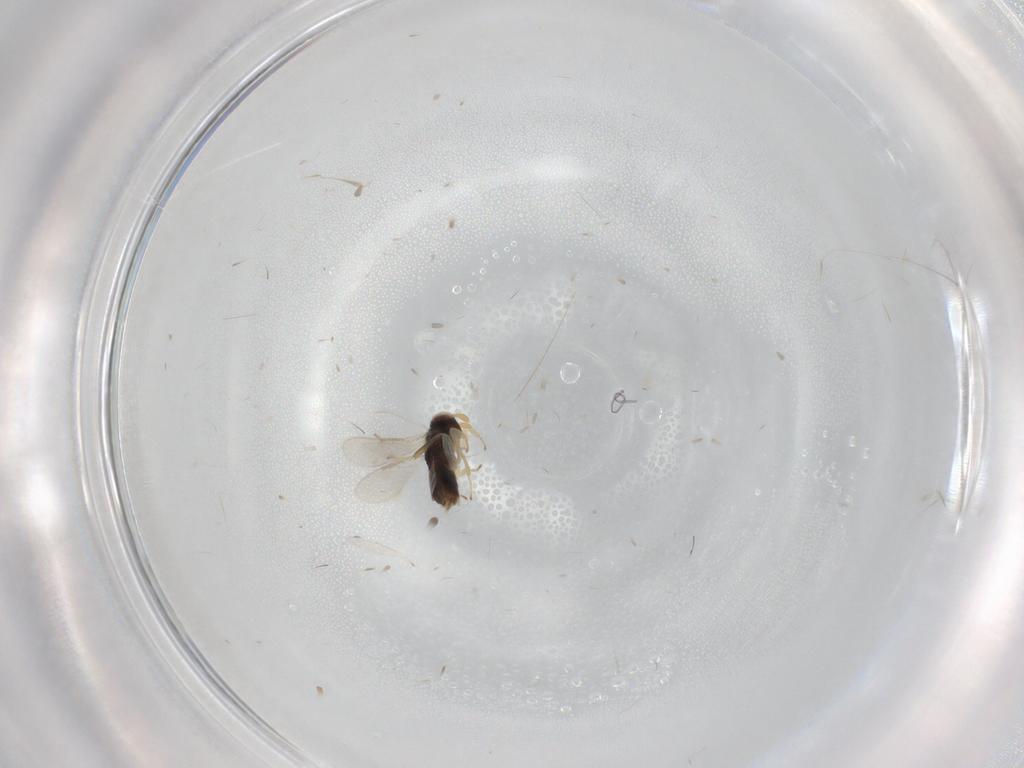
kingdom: Animalia
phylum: Arthropoda
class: Insecta
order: Hymenoptera
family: Aphelinidae
